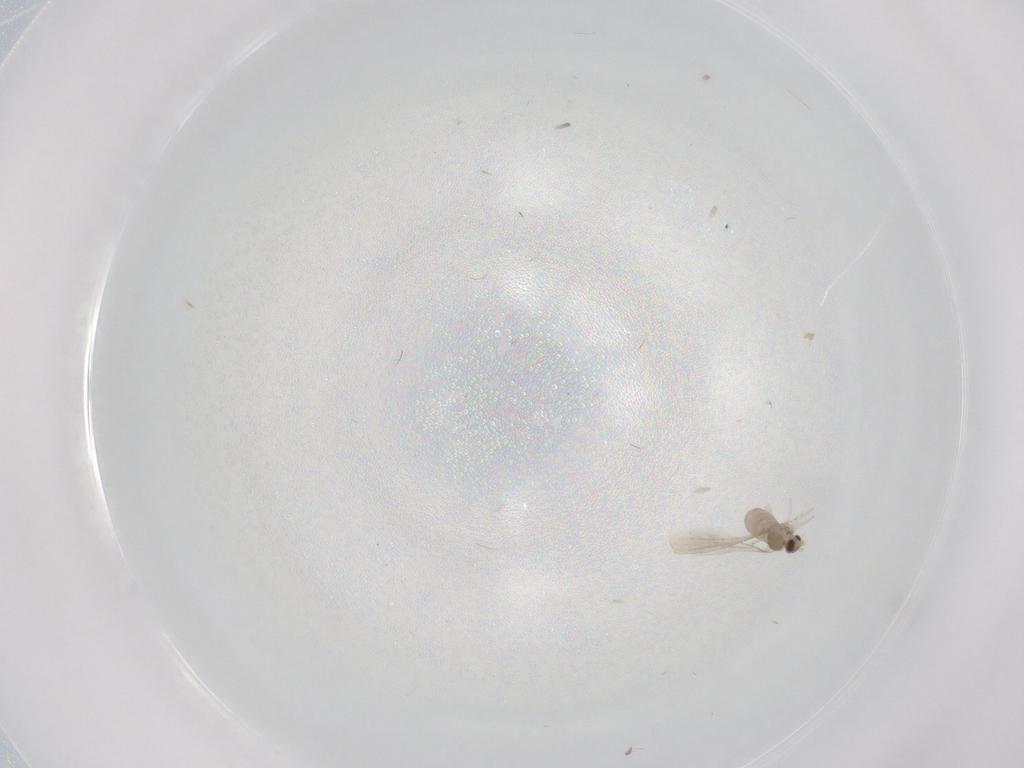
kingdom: Animalia
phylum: Arthropoda
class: Insecta
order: Diptera
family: Cecidomyiidae
